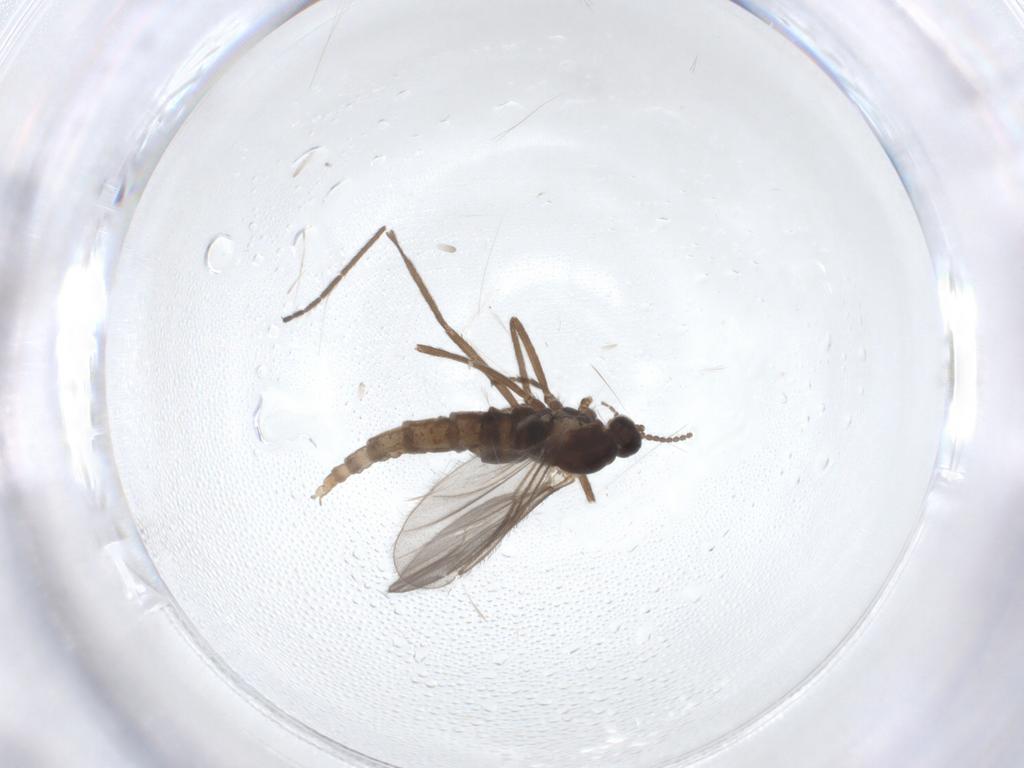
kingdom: Animalia
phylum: Arthropoda
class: Insecta
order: Diptera
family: Cecidomyiidae
